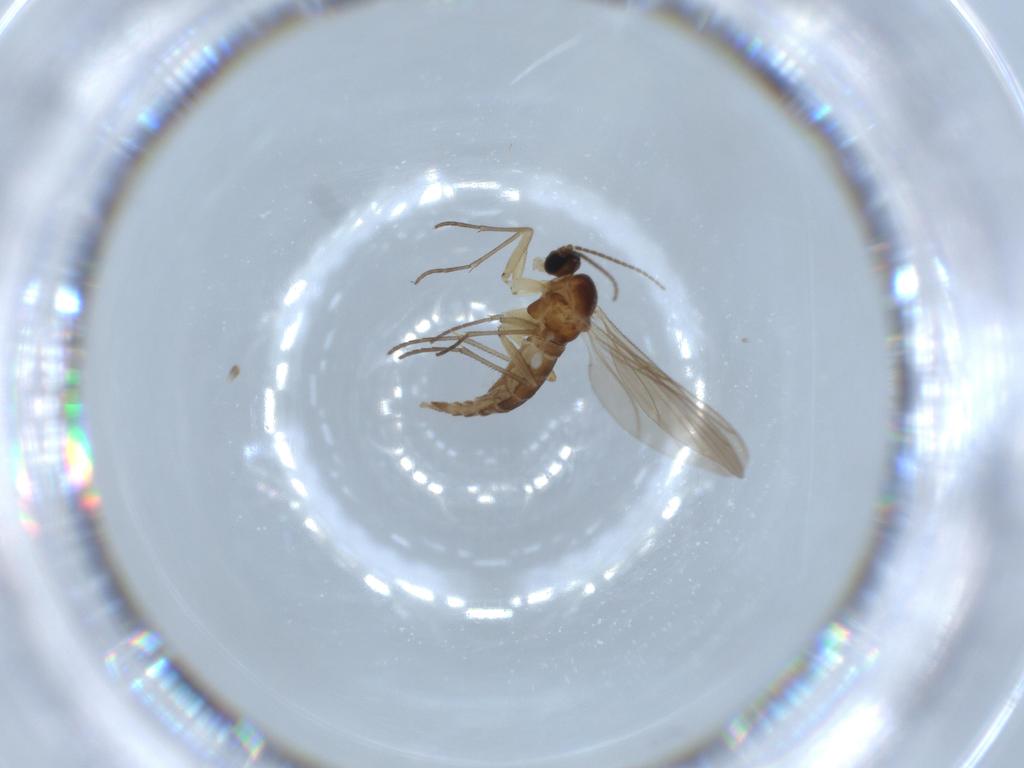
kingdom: Animalia
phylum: Arthropoda
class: Insecta
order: Diptera
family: Sciaridae
